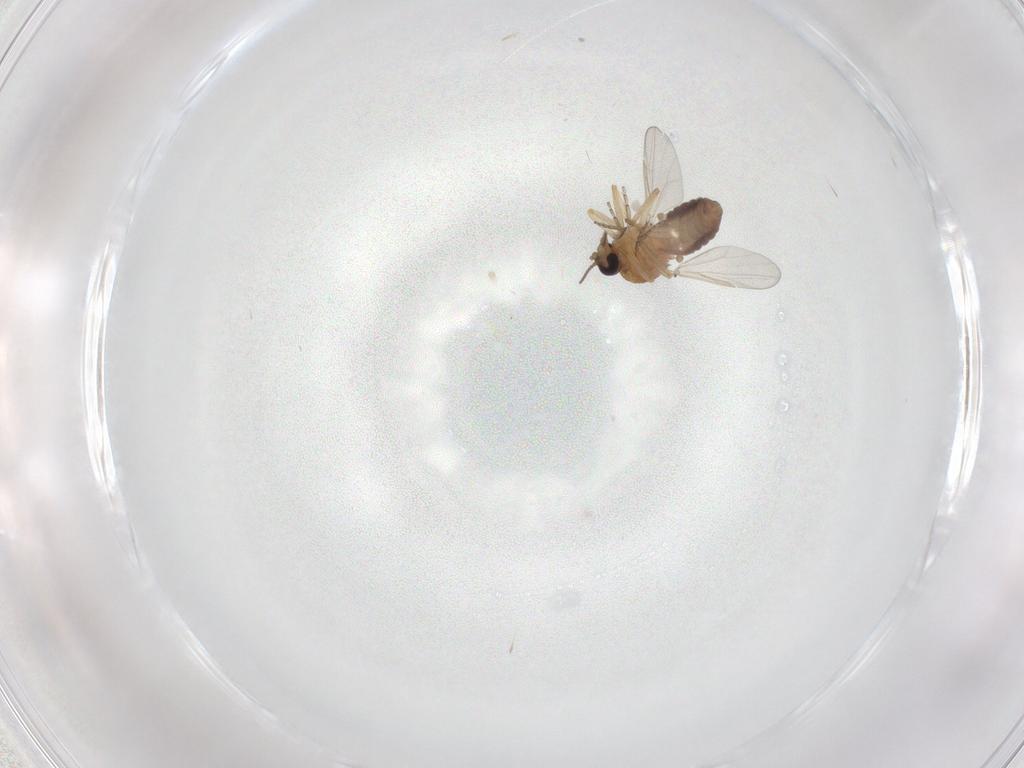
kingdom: Animalia
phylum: Arthropoda
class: Insecta
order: Diptera
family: Ceratopogonidae
